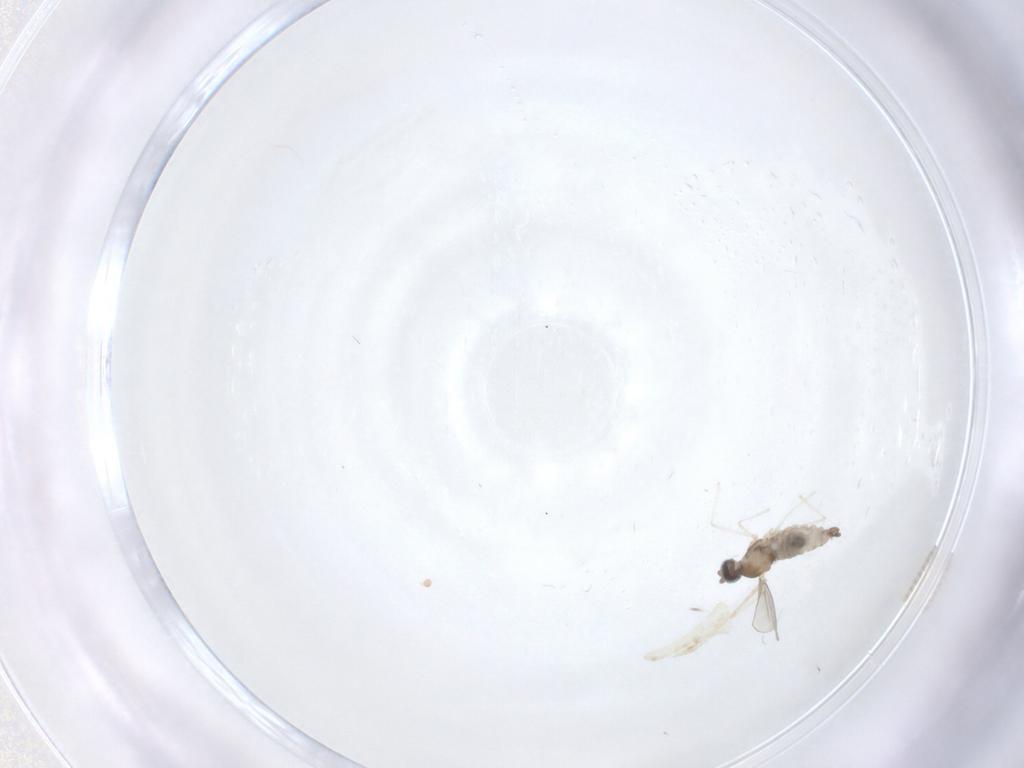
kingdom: Animalia
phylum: Arthropoda
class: Insecta
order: Diptera
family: Cecidomyiidae
